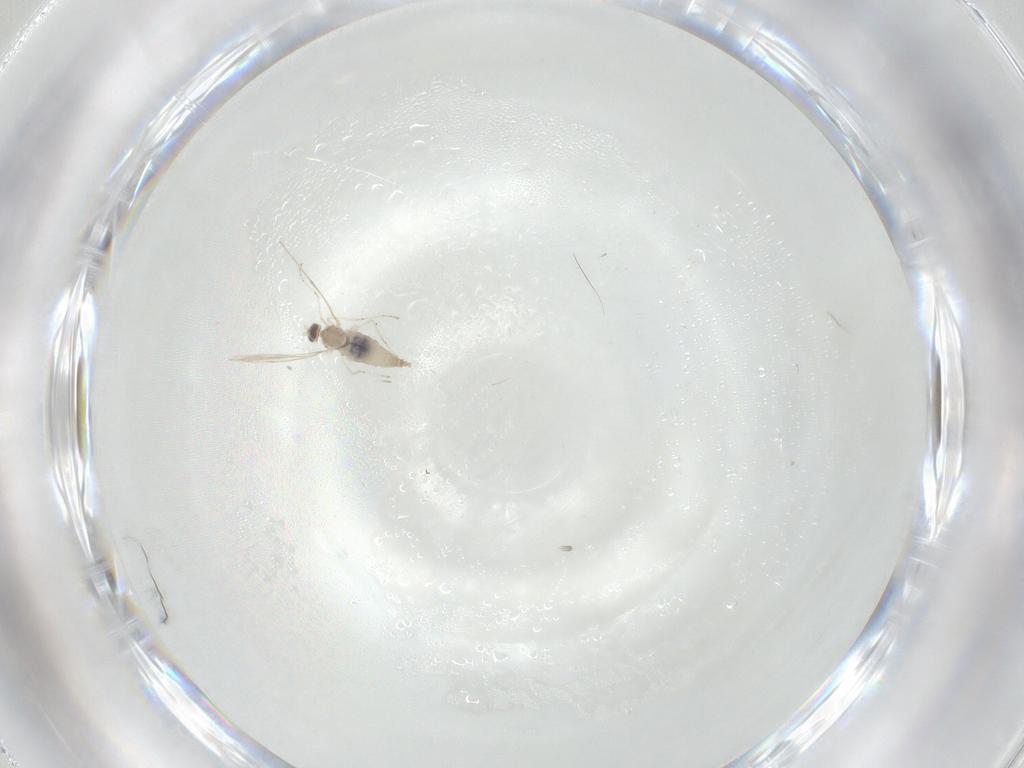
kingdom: Animalia
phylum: Arthropoda
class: Insecta
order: Diptera
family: Cecidomyiidae
